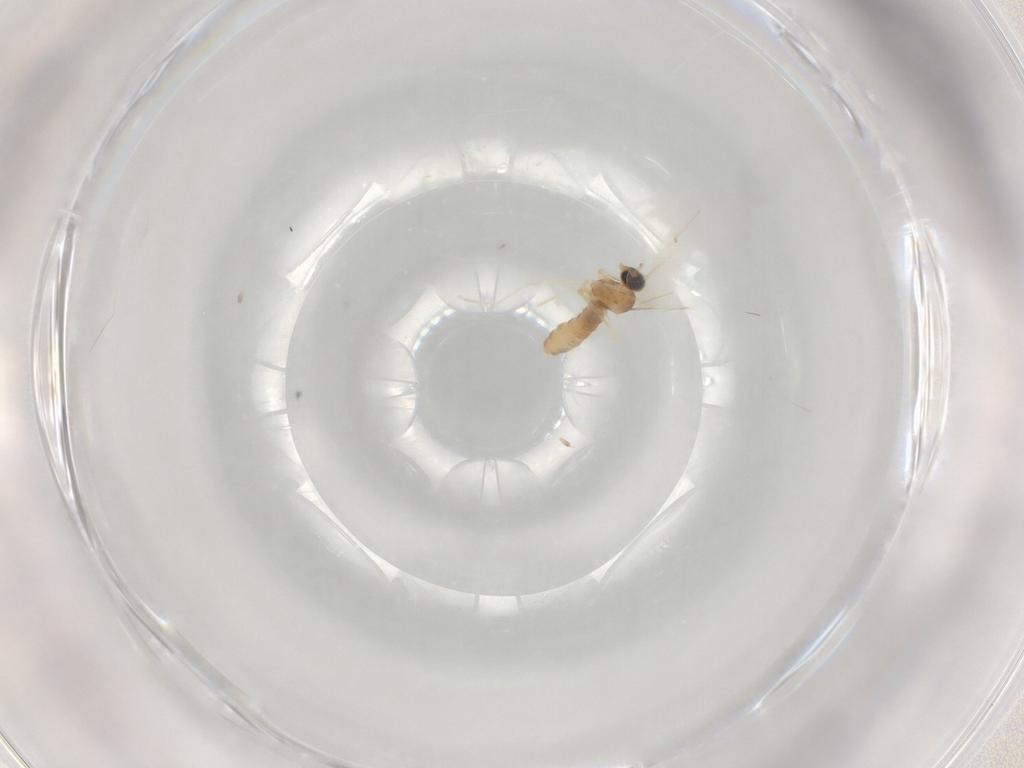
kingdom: Animalia
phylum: Arthropoda
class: Insecta
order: Diptera
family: Cecidomyiidae
